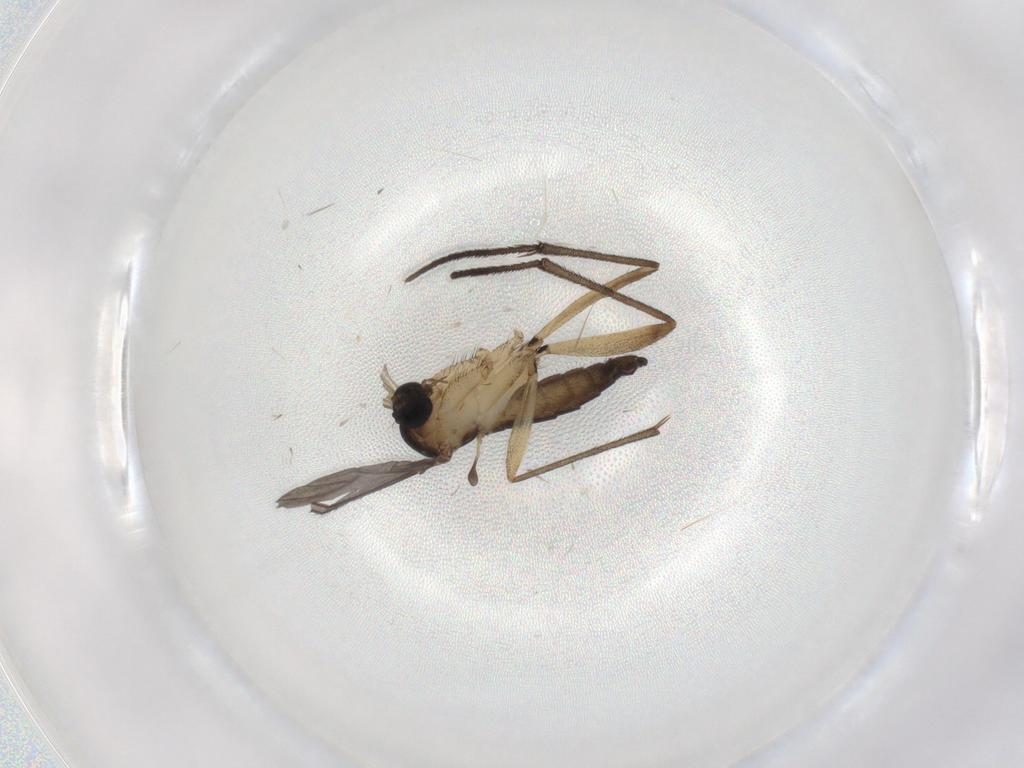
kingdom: Animalia
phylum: Arthropoda
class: Insecta
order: Diptera
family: Sciaridae
